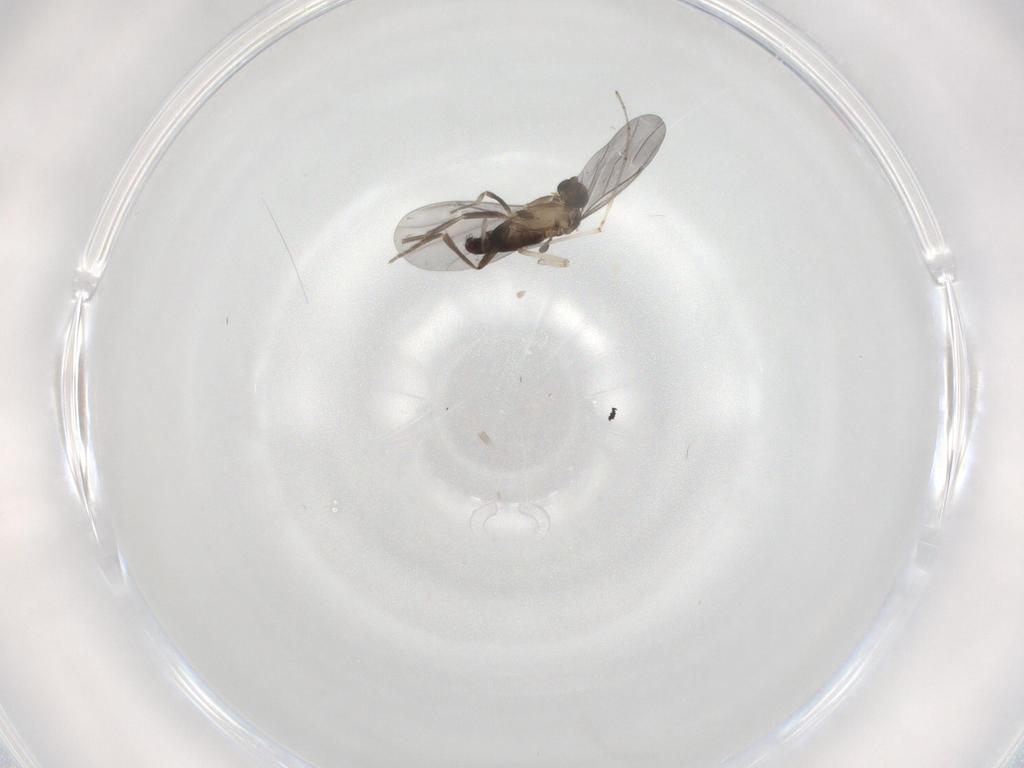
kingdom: Animalia
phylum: Arthropoda
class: Insecta
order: Diptera
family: Phoridae
